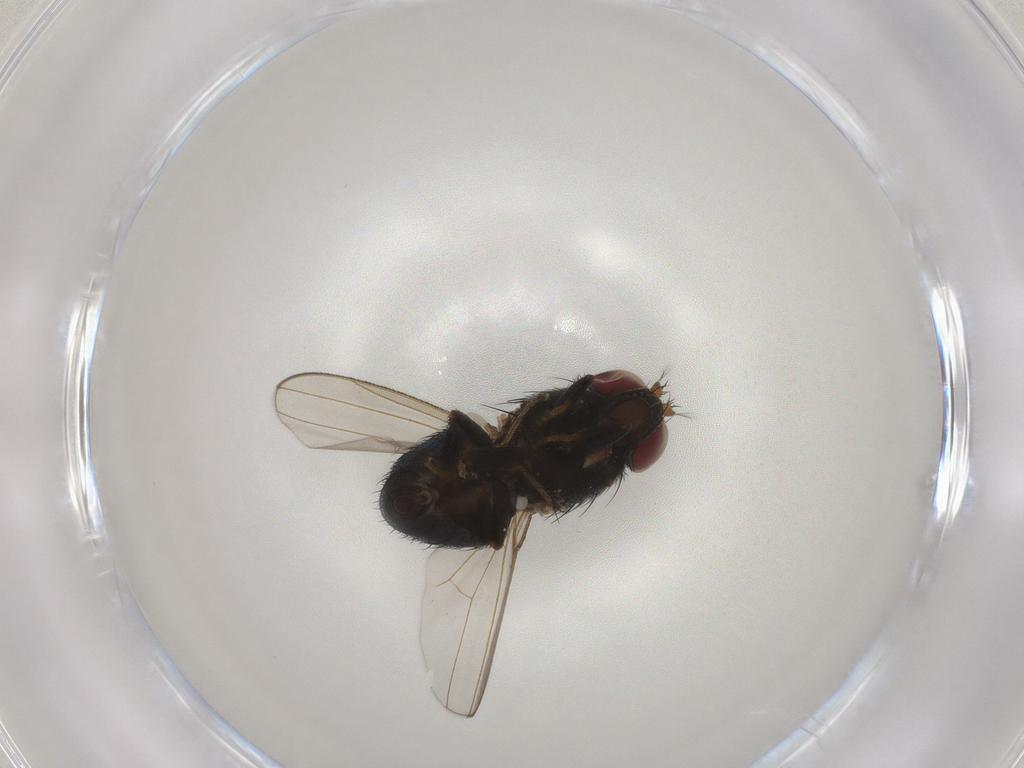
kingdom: Animalia
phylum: Arthropoda
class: Insecta
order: Diptera
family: Ephydridae
